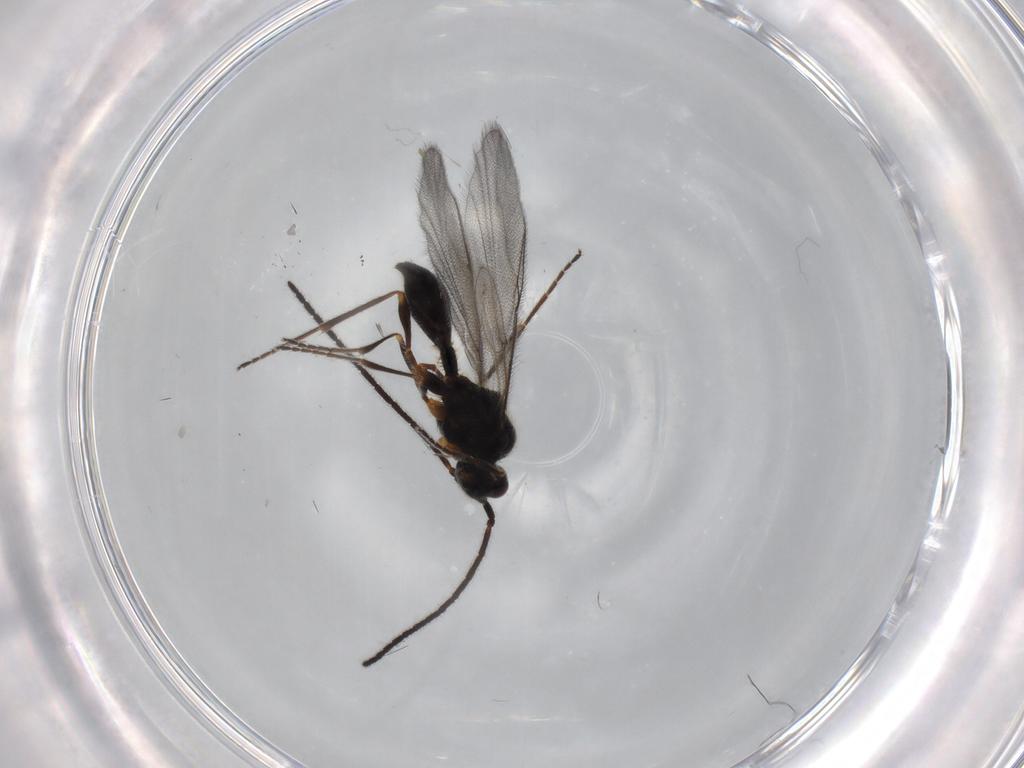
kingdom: Animalia
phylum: Arthropoda
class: Insecta
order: Hymenoptera
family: Diapriidae
